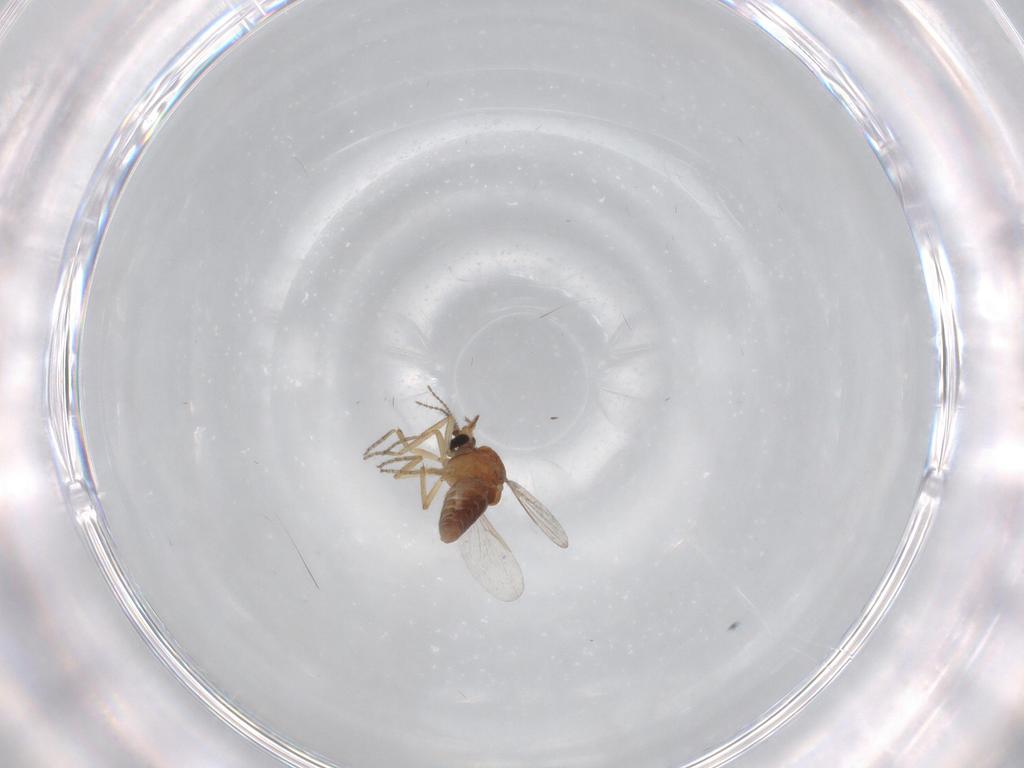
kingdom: Animalia
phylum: Arthropoda
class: Insecta
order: Diptera
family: Ceratopogonidae
